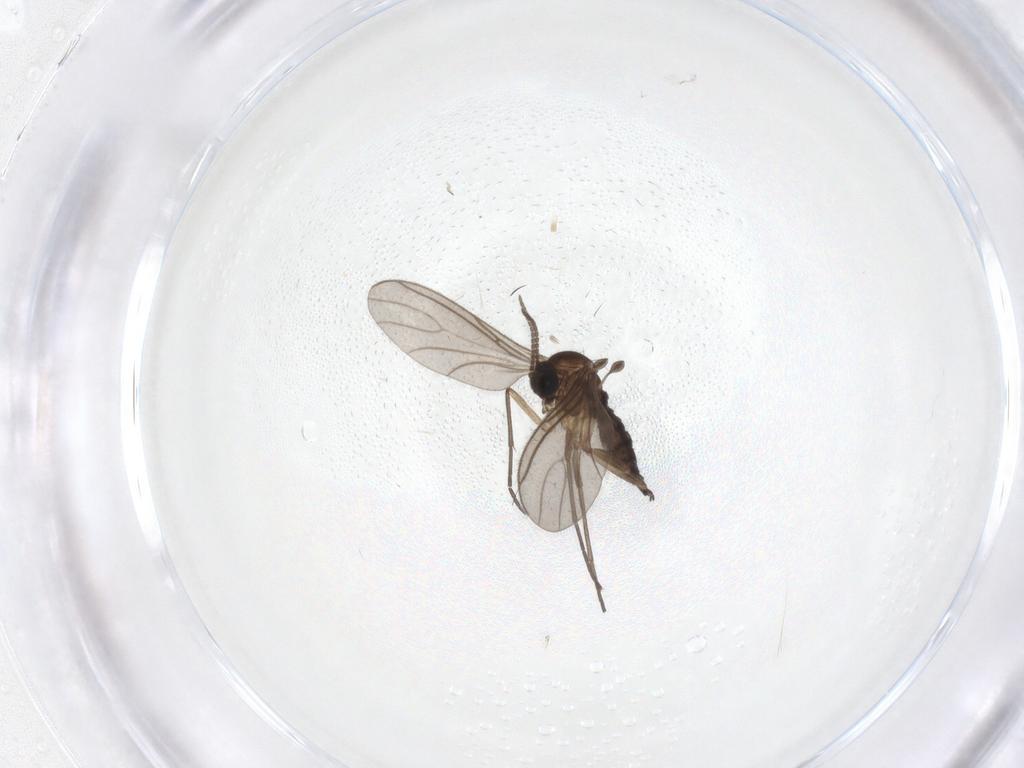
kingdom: Animalia
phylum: Arthropoda
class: Insecta
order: Diptera
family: Sciaridae
